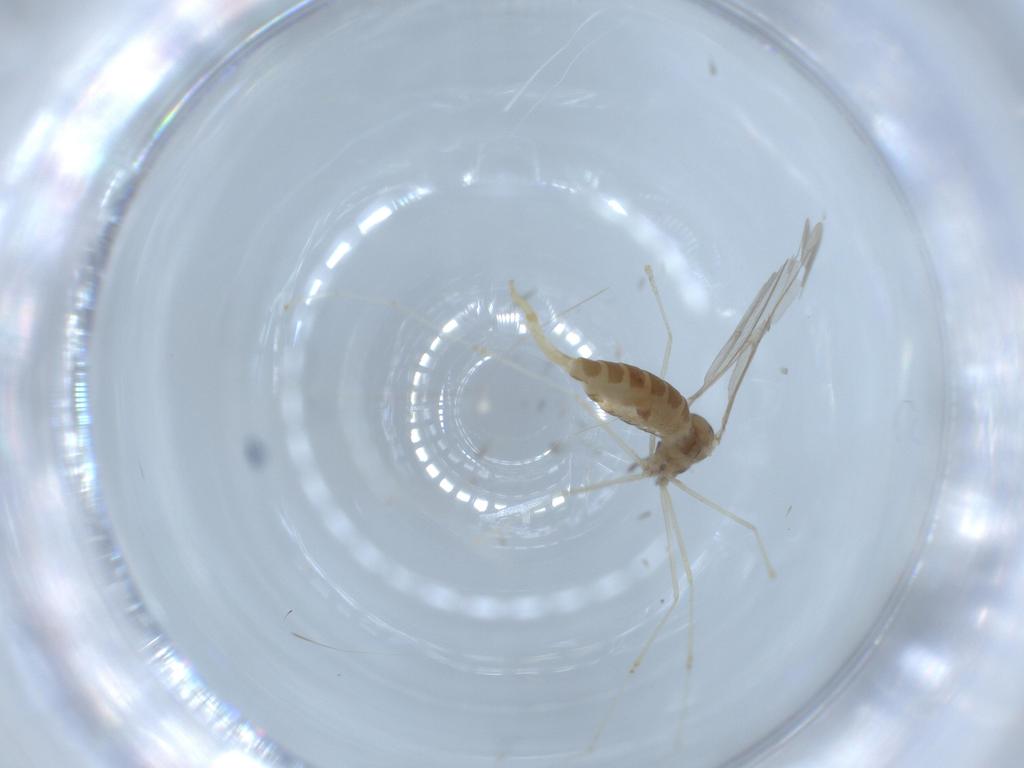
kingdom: Animalia
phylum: Arthropoda
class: Insecta
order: Diptera
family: Cecidomyiidae
